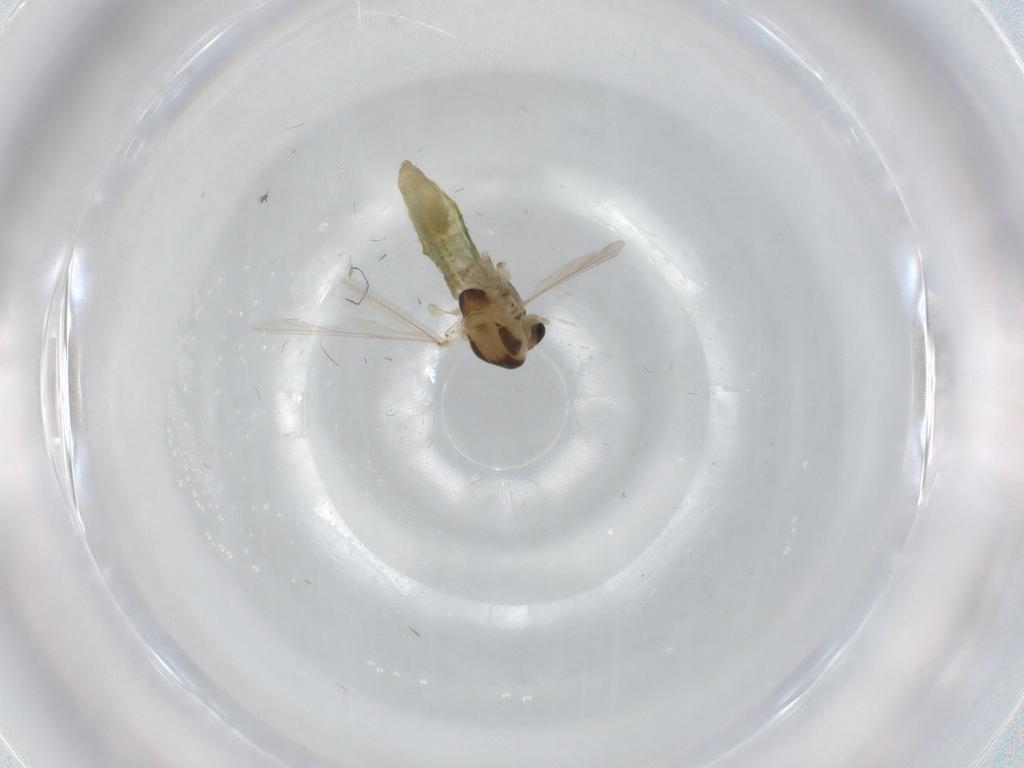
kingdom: Animalia
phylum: Arthropoda
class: Insecta
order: Diptera
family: Chironomidae
